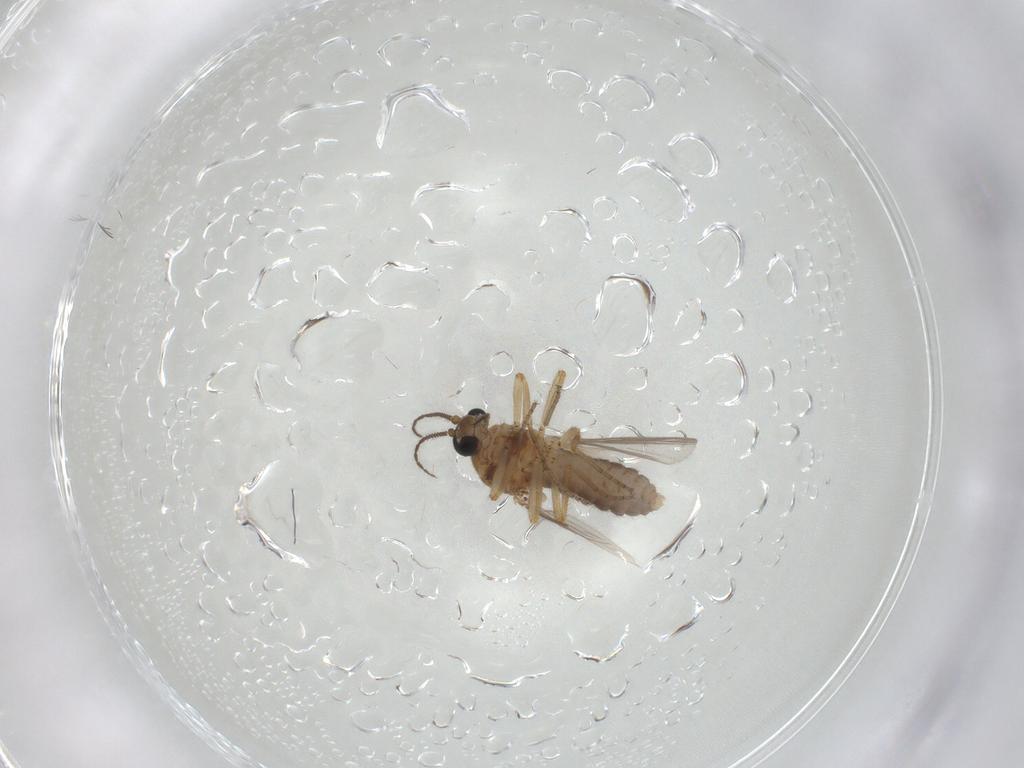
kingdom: Animalia
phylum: Arthropoda
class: Insecta
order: Diptera
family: Ceratopogonidae
